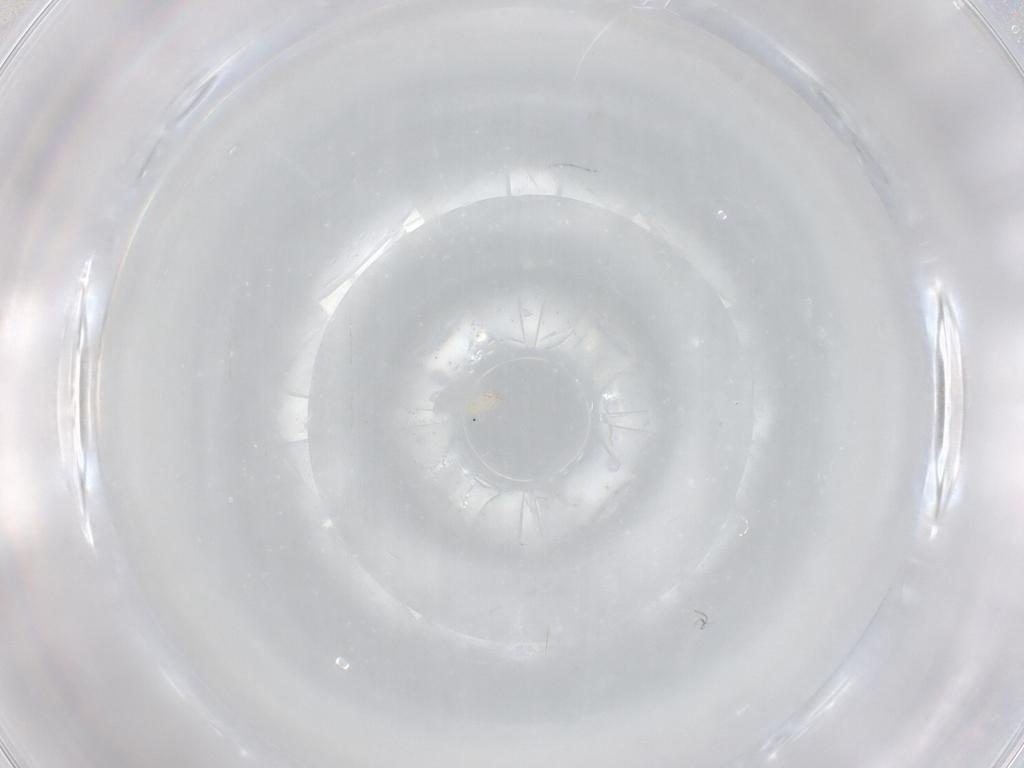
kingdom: Animalia
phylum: Arthropoda
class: Arachnida
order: Trombidiformes
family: Microtrombidiidae
